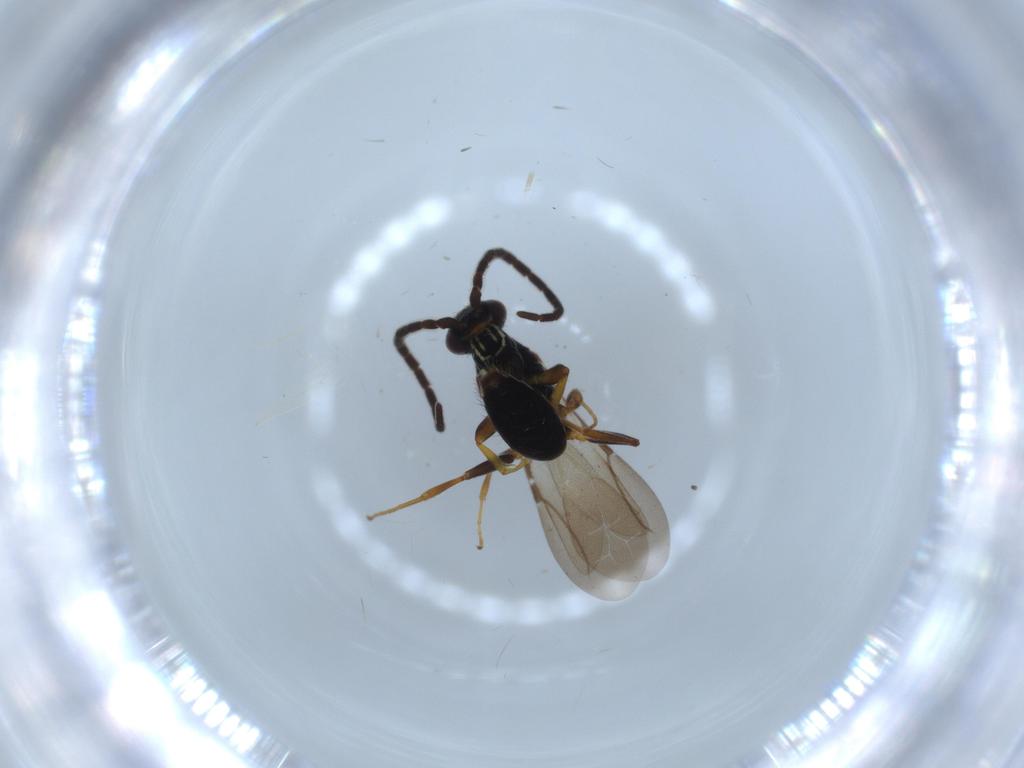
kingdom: Animalia
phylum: Arthropoda
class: Insecta
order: Hymenoptera
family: Bethylidae
